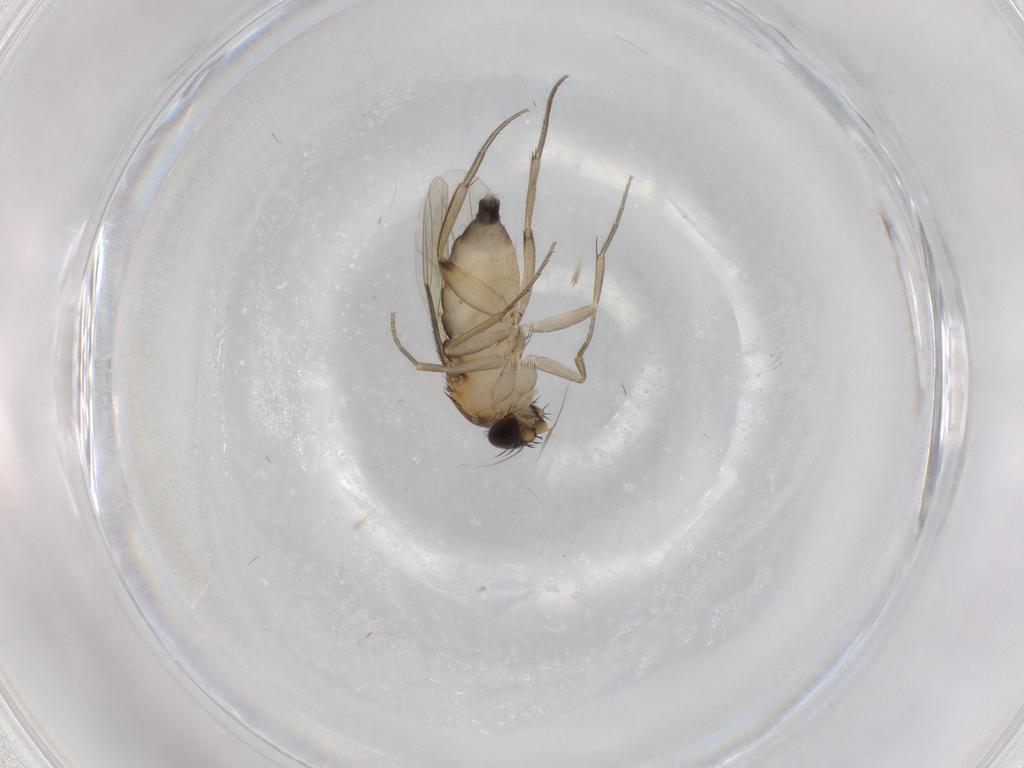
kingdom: Animalia
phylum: Arthropoda
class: Insecta
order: Diptera
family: Phoridae
